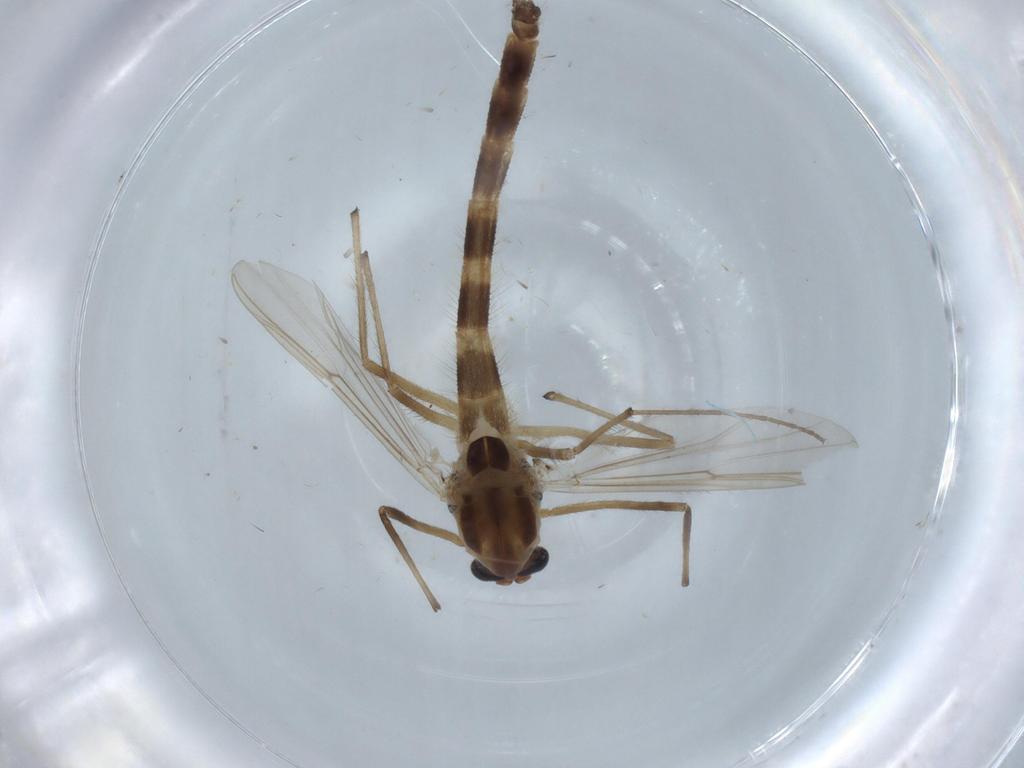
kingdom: Animalia
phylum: Arthropoda
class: Insecta
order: Diptera
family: Chironomidae
